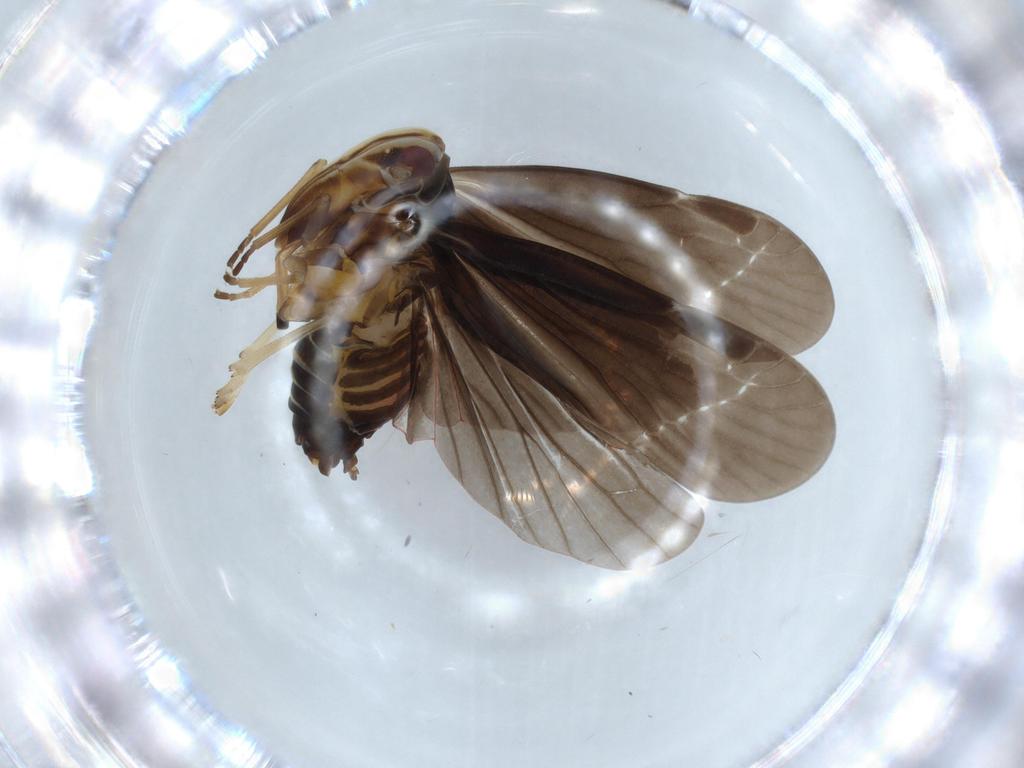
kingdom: Animalia
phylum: Arthropoda
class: Insecta
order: Hemiptera
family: Derbidae
